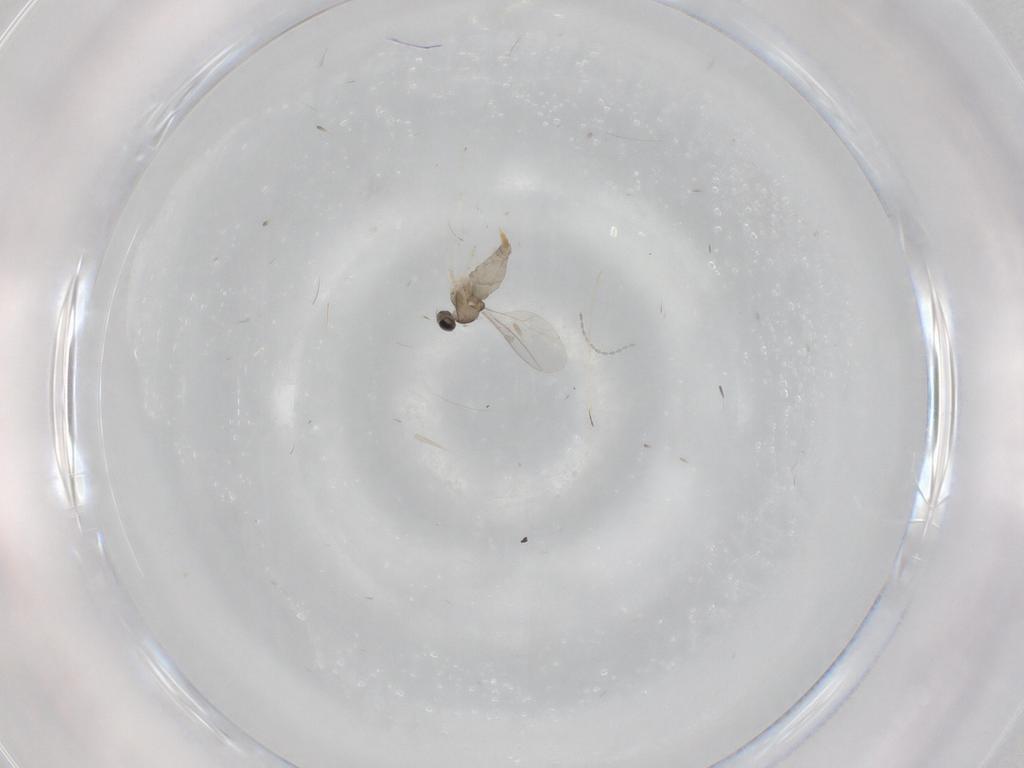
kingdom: Animalia
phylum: Arthropoda
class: Insecta
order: Diptera
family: Cecidomyiidae
